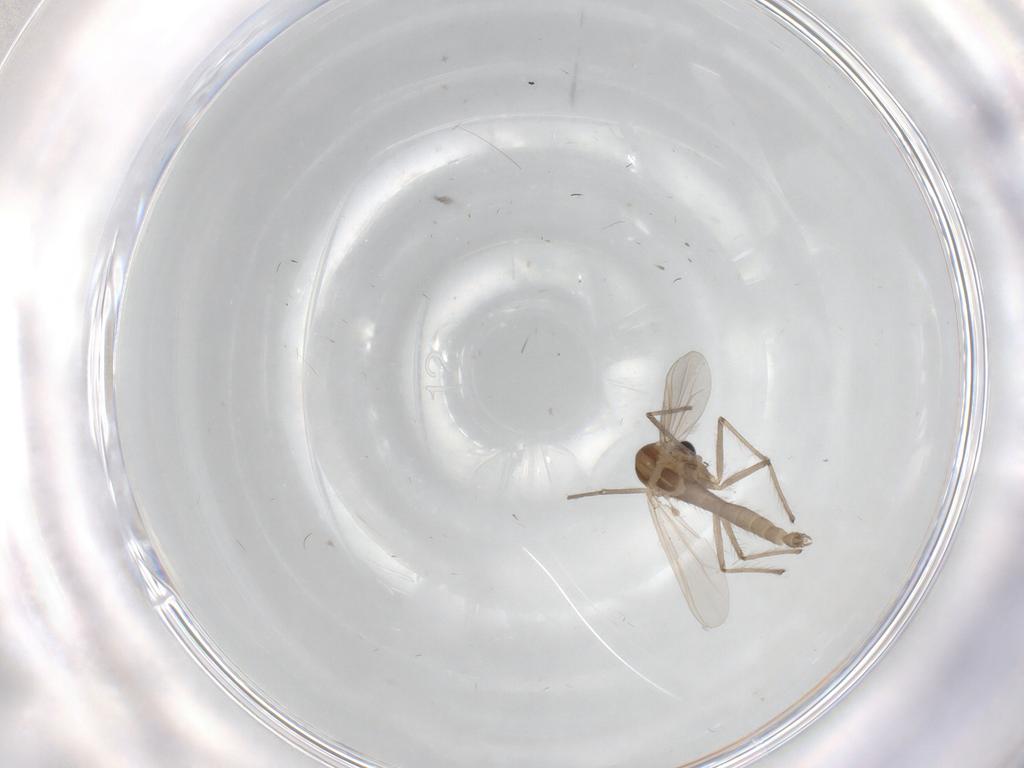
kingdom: Animalia
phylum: Arthropoda
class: Insecta
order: Diptera
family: Chironomidae
